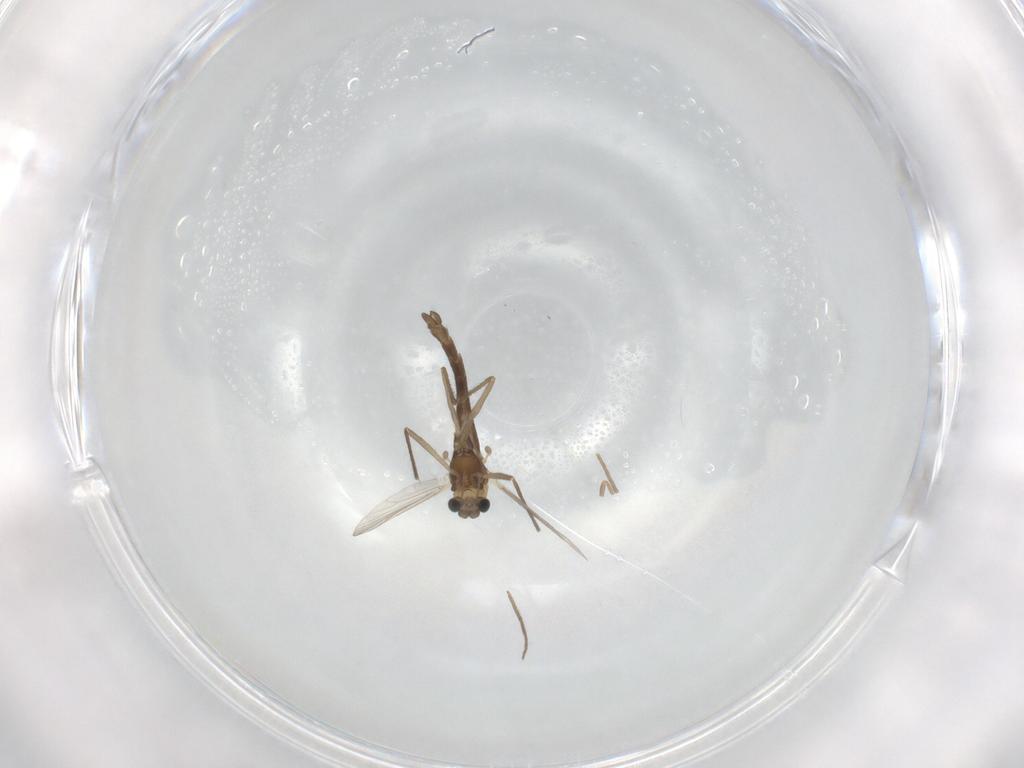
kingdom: Animalia
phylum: Arthropoda
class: Insecta
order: Diptera
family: Chironomidae
